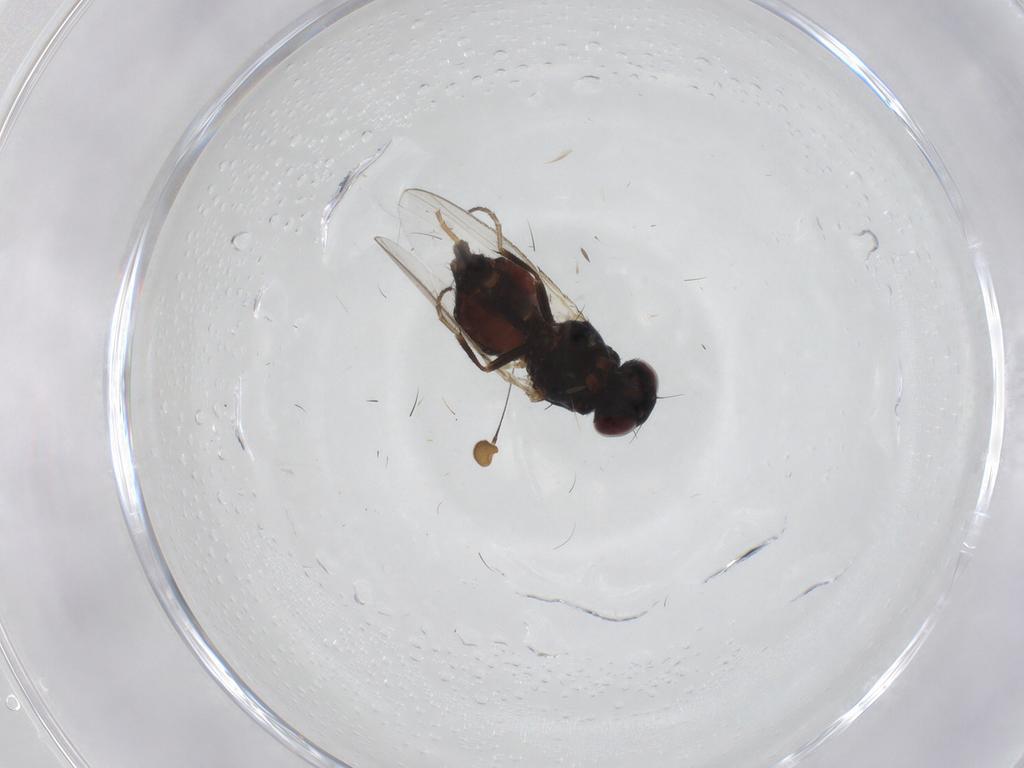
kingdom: Animalia
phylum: Arthropoda
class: Insecta
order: Diptera
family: Carnidae
